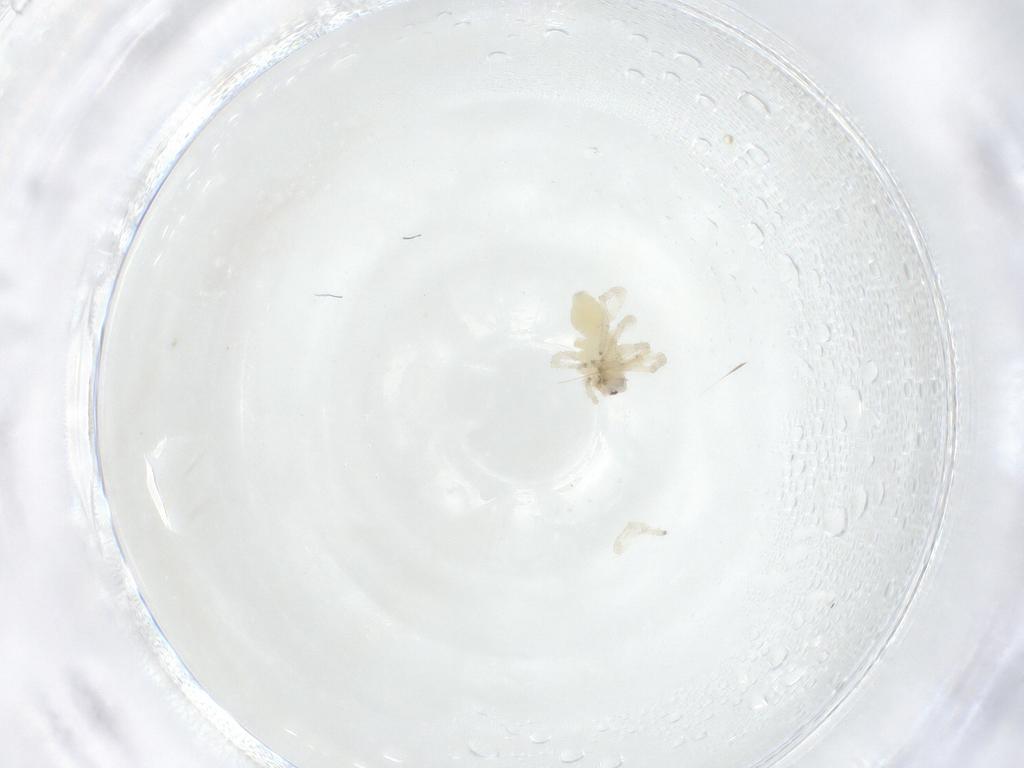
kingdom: Animalia
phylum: Arthropoda
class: Arachnida
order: Araneae
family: Anyphaenidae
